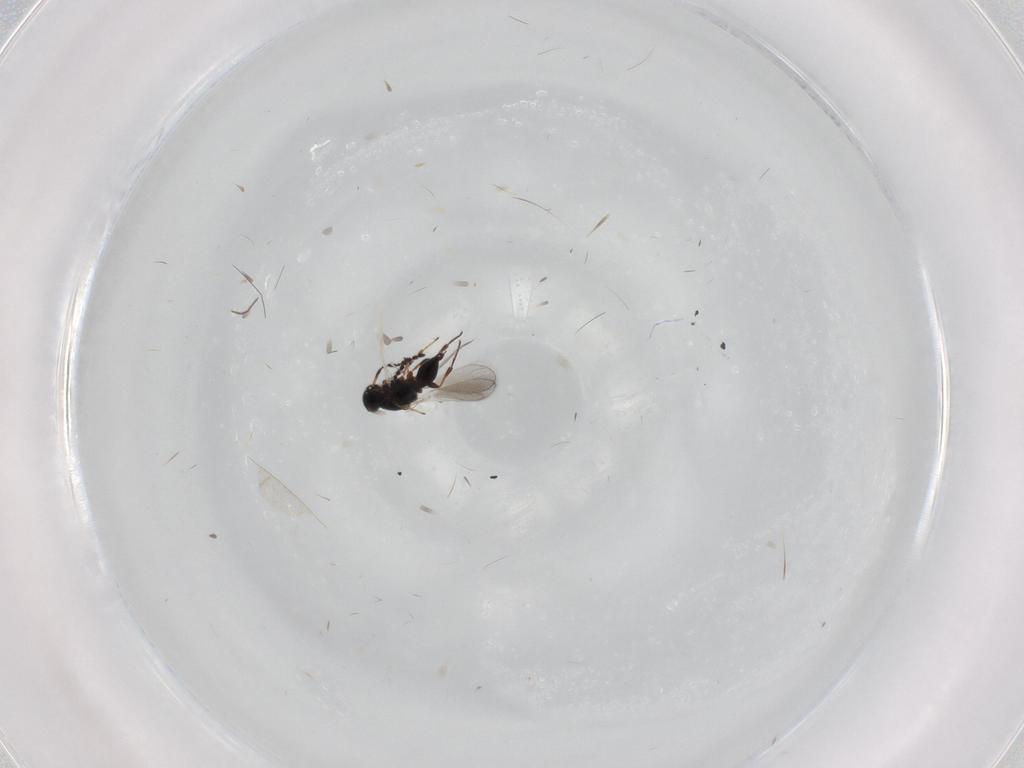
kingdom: Animalia
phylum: Arthropoda
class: Insecta
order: Hymenoptera
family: Platygastridae
